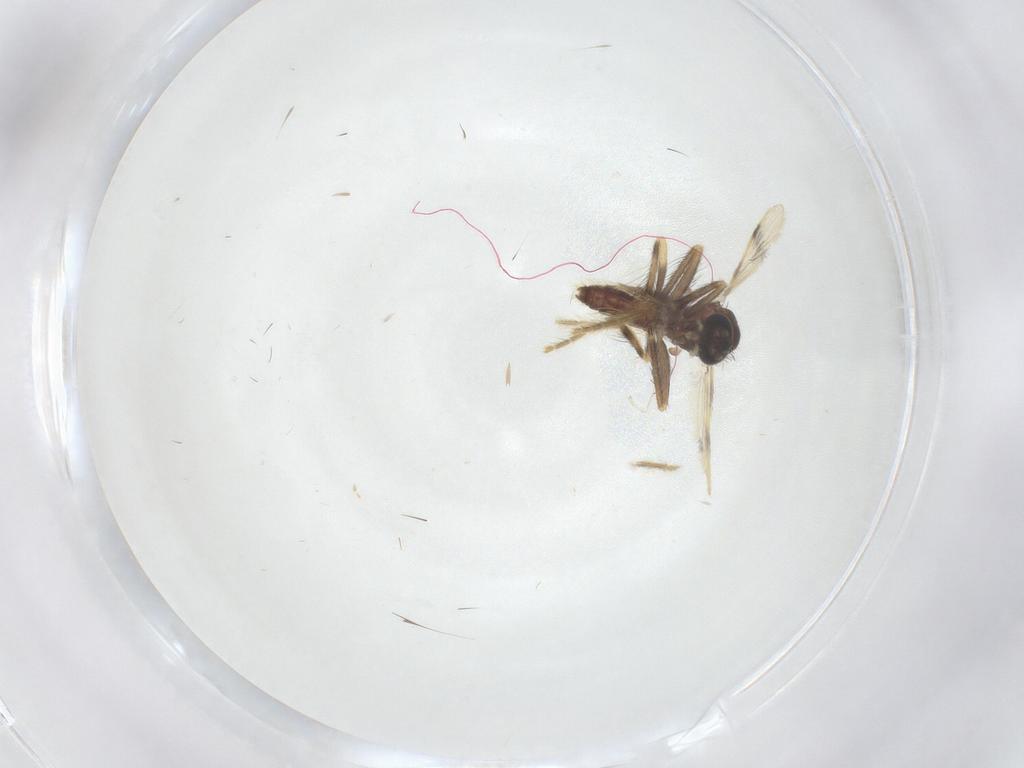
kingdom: Animalia
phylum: Arthropoda
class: Insecta
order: Diptera
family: Corethrellidae
